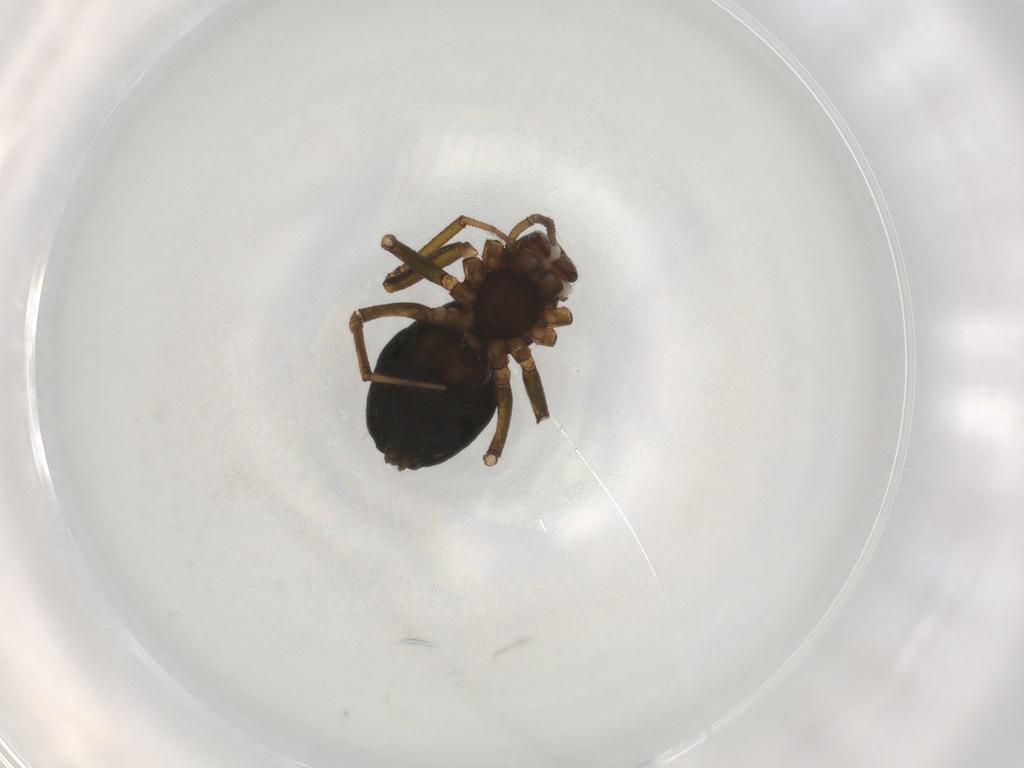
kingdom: Animalia
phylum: Arthropoda
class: Arachnida
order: Araneae
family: Linyphiidae
